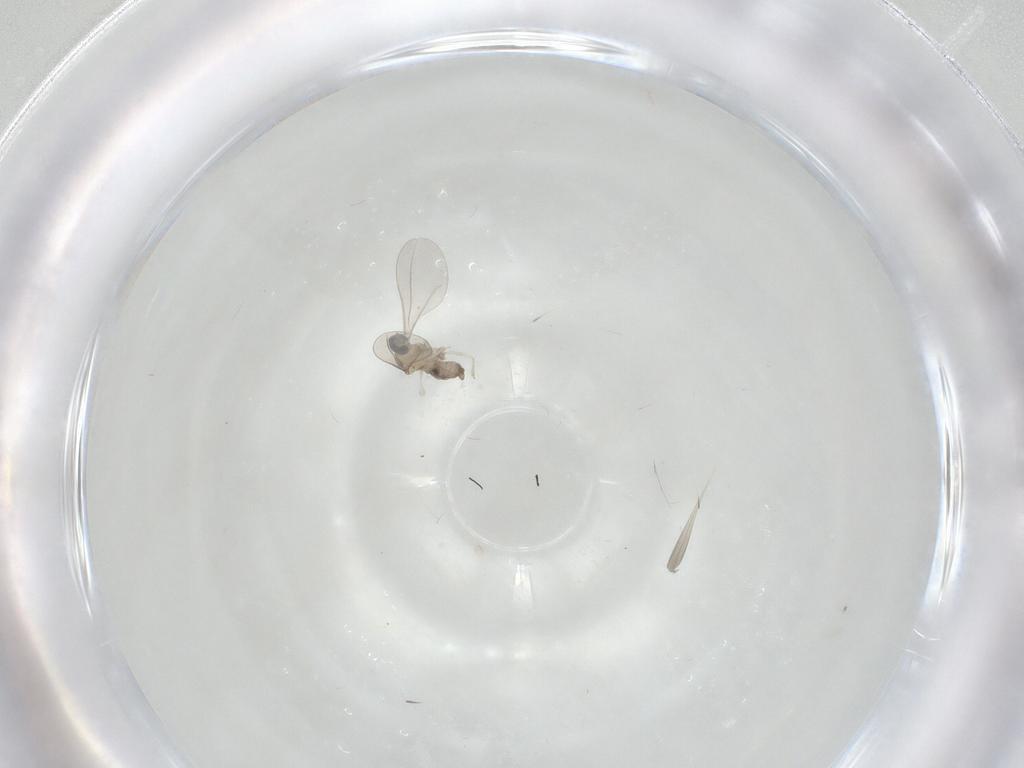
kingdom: Animalia
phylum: Arthropoda
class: Insecta
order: Diptera
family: Cecidomyiidae
